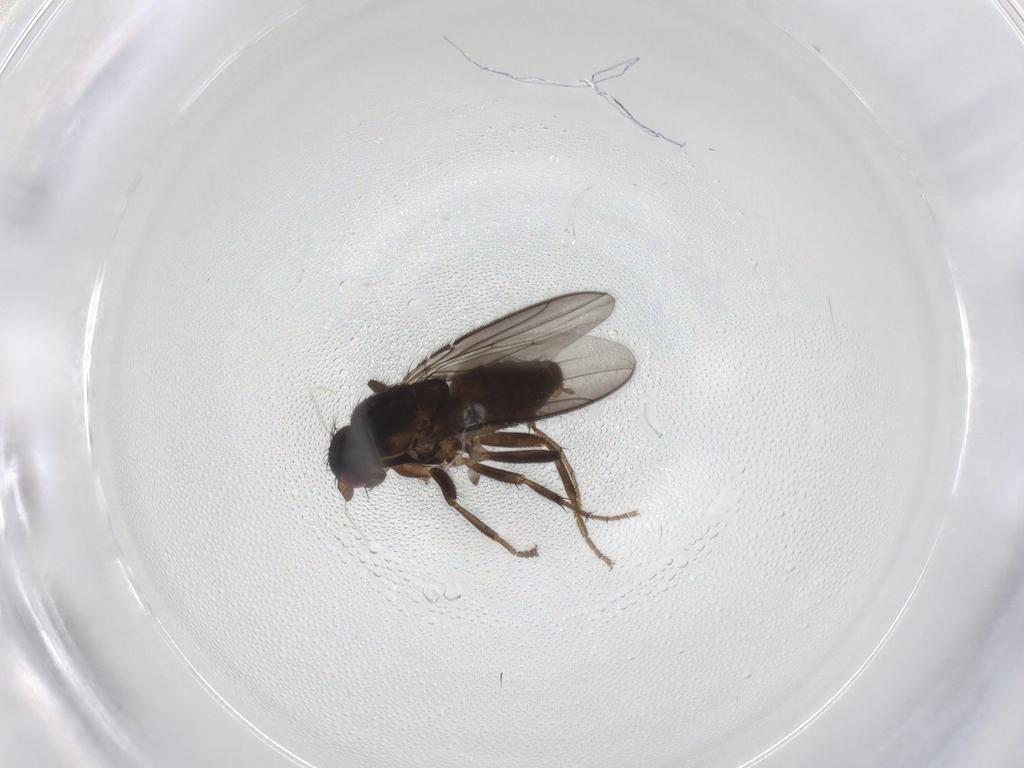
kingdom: Animalia
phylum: Arthropoda
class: Insecta
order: Diptera
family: Sphaeroceridae
